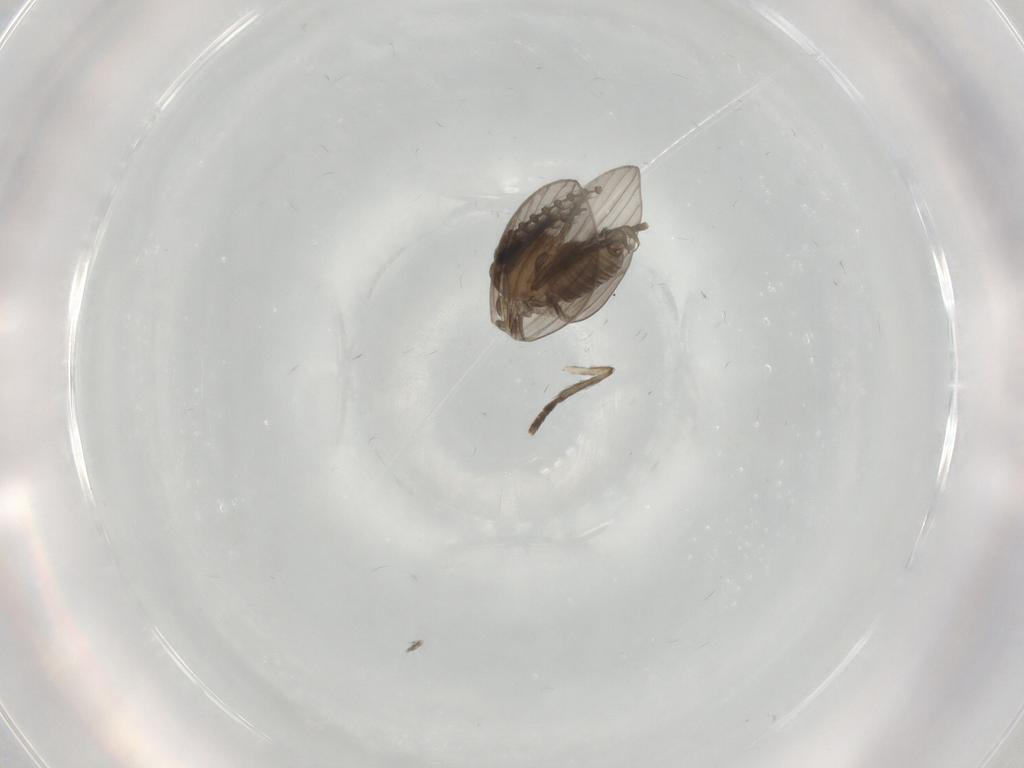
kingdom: Animalia
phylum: Arthropoda
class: Insecta
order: Diptera
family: Psychodidae
